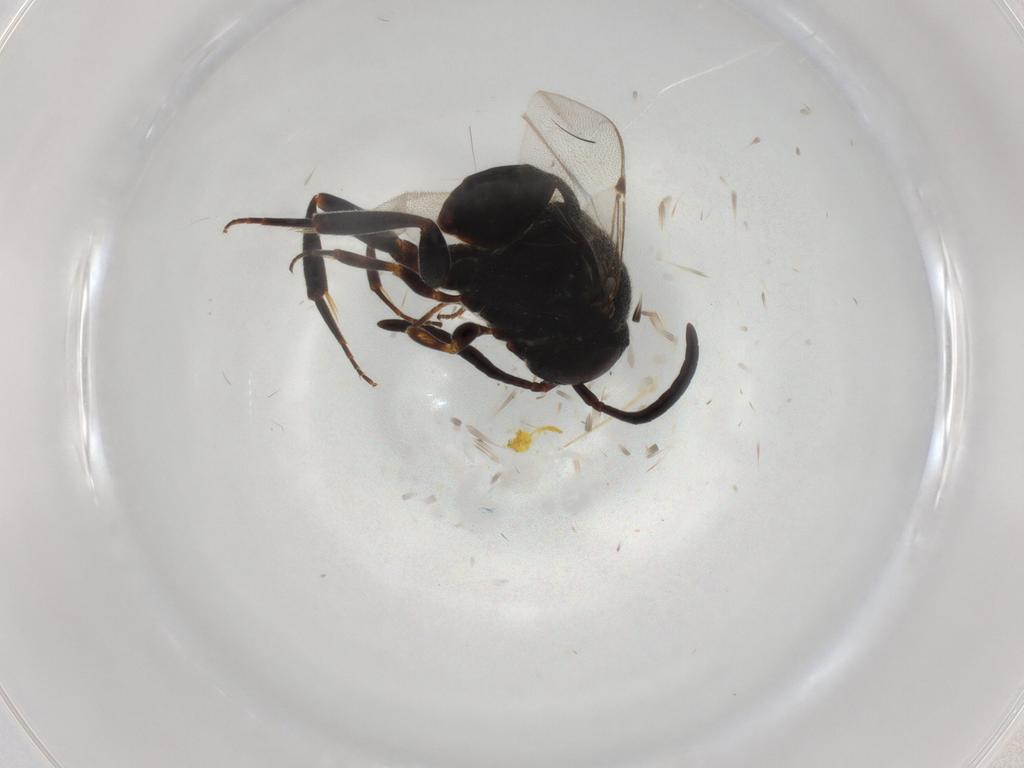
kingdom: Animalia
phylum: Arthropoda
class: Insecta
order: Hymenoptera
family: Evaniidae
